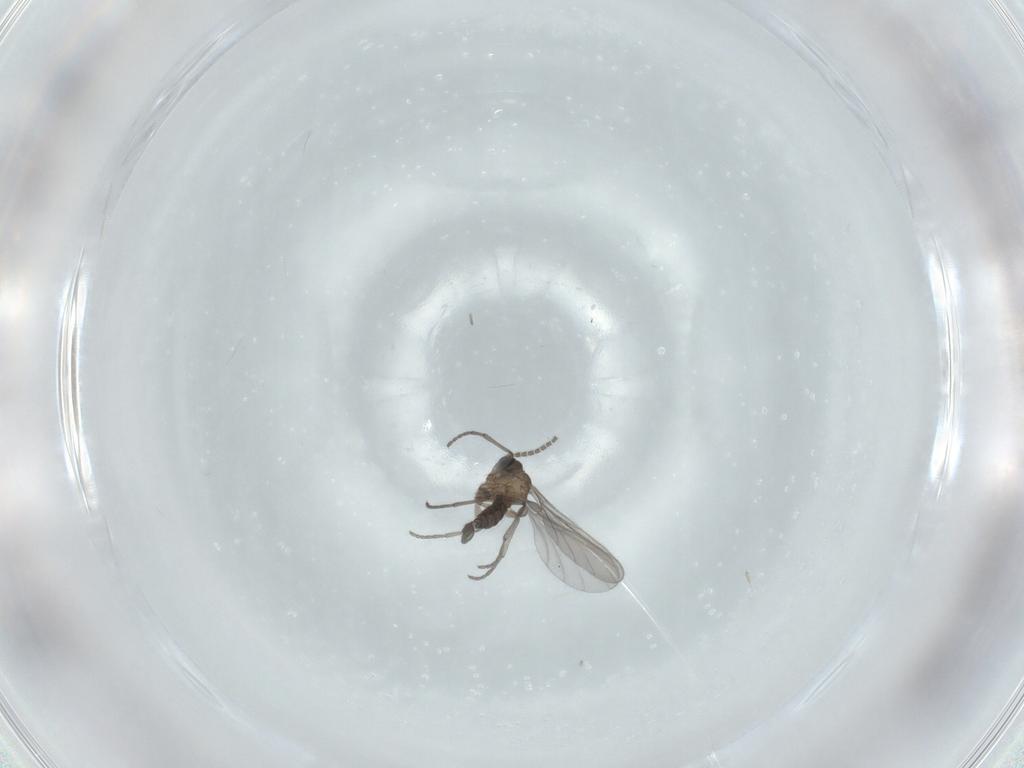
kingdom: Animalia
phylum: Arthropoda
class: Insecta
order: Diptera
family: Sciaridae
